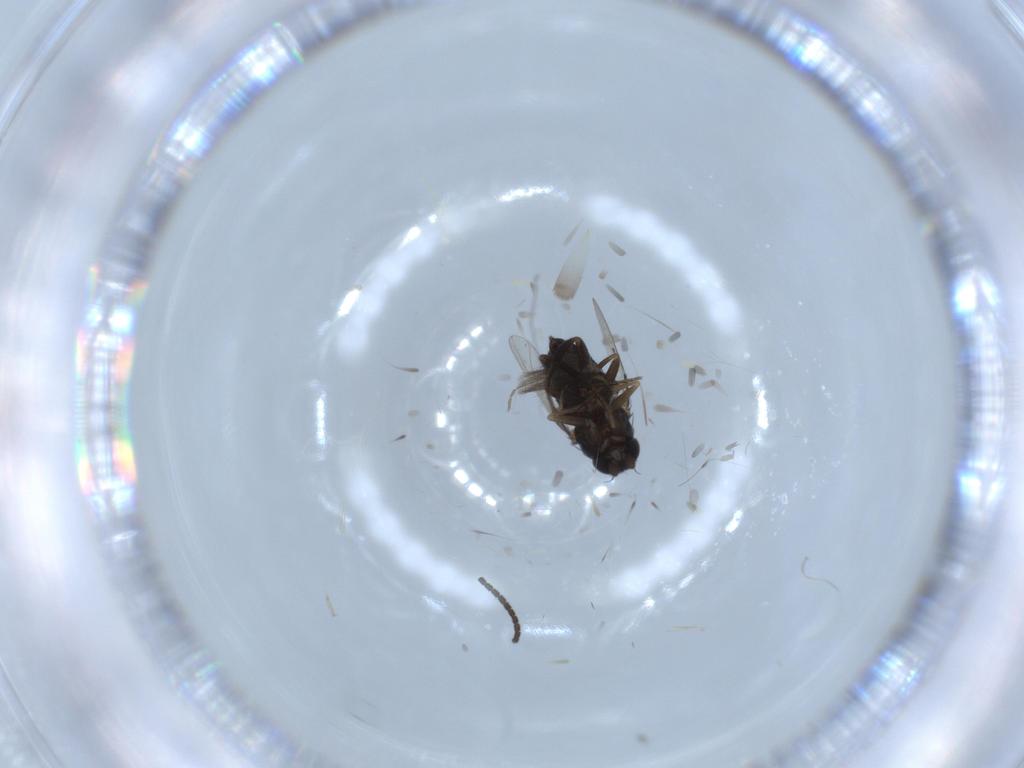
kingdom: Animalia
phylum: Arthropoda
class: Insecta
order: Diptera
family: Phoridae
